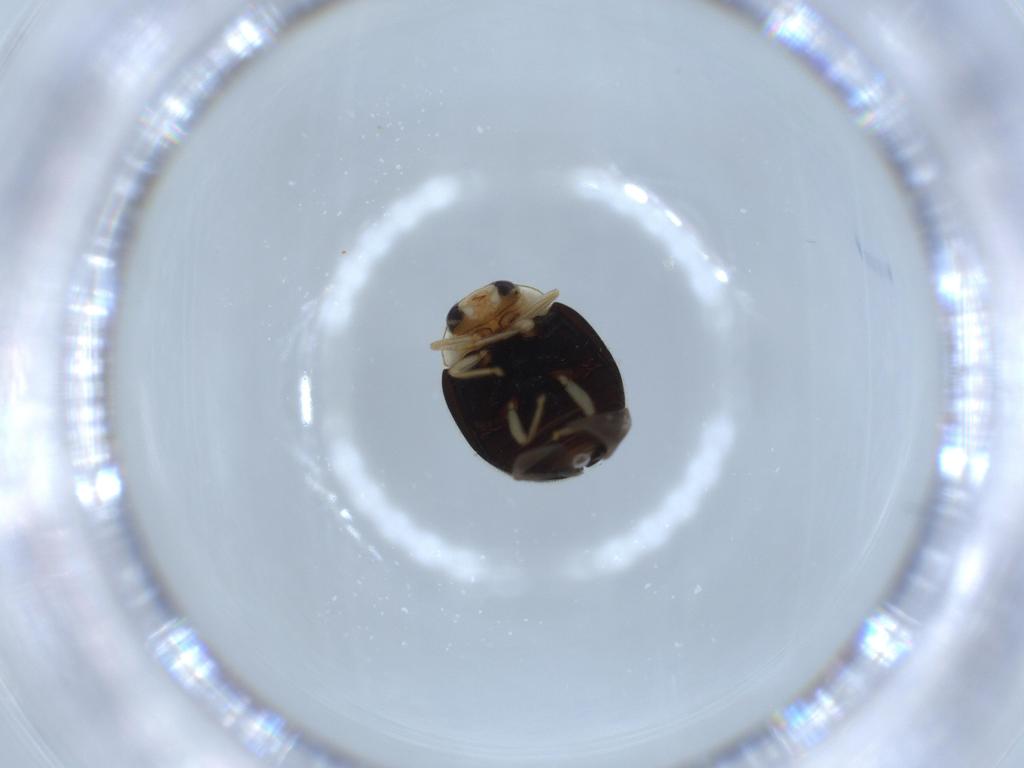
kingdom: Animalia
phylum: Arthropoda
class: Insecta
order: Coleoptera
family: Coccinellidae
